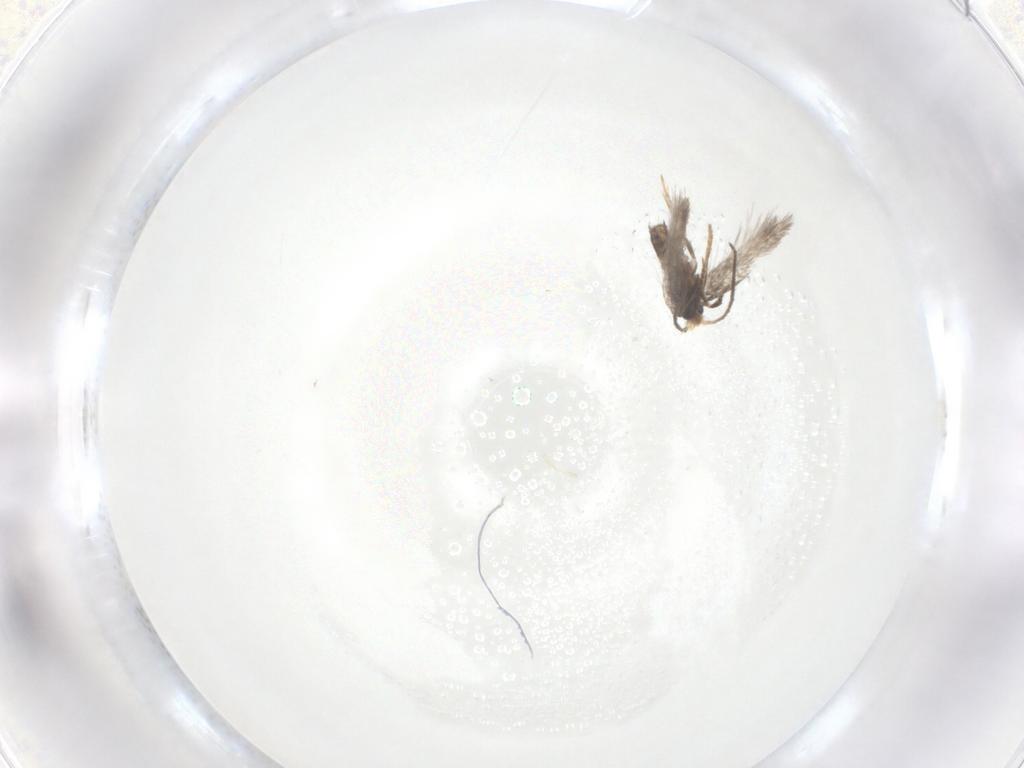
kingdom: Animalia
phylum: Arthropoda
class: Insecta
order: Lepidoptera
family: Nepticulidae
